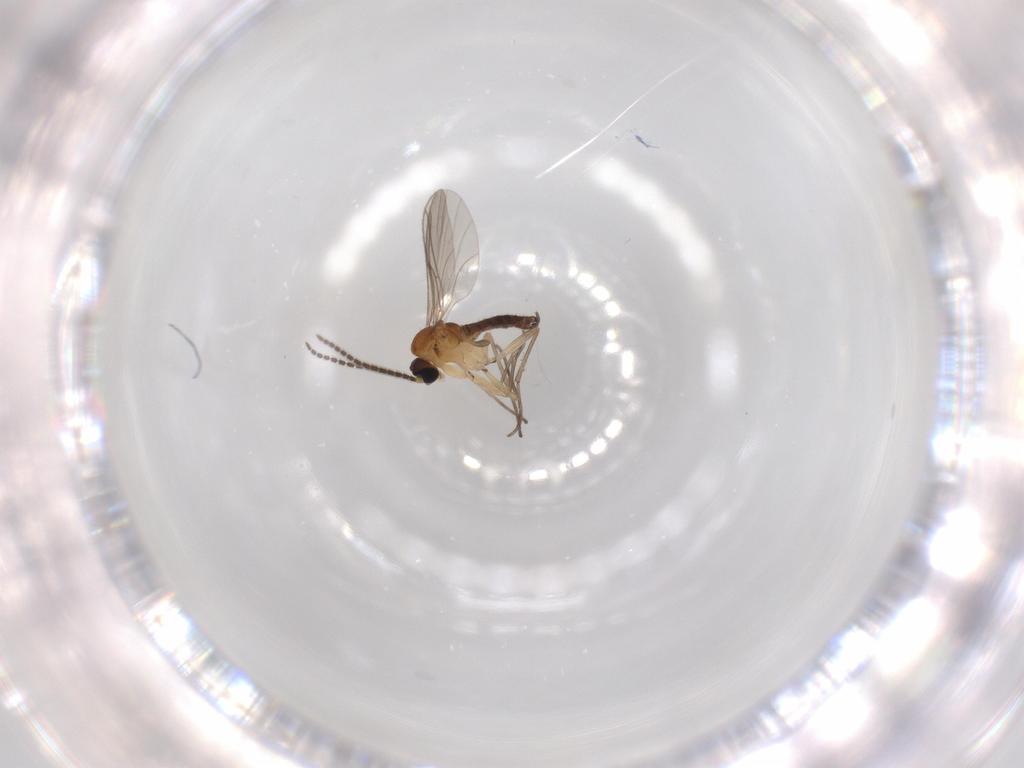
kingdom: Animalia
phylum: Arthropoda
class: Insecta
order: Diptera
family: Sciaridae
